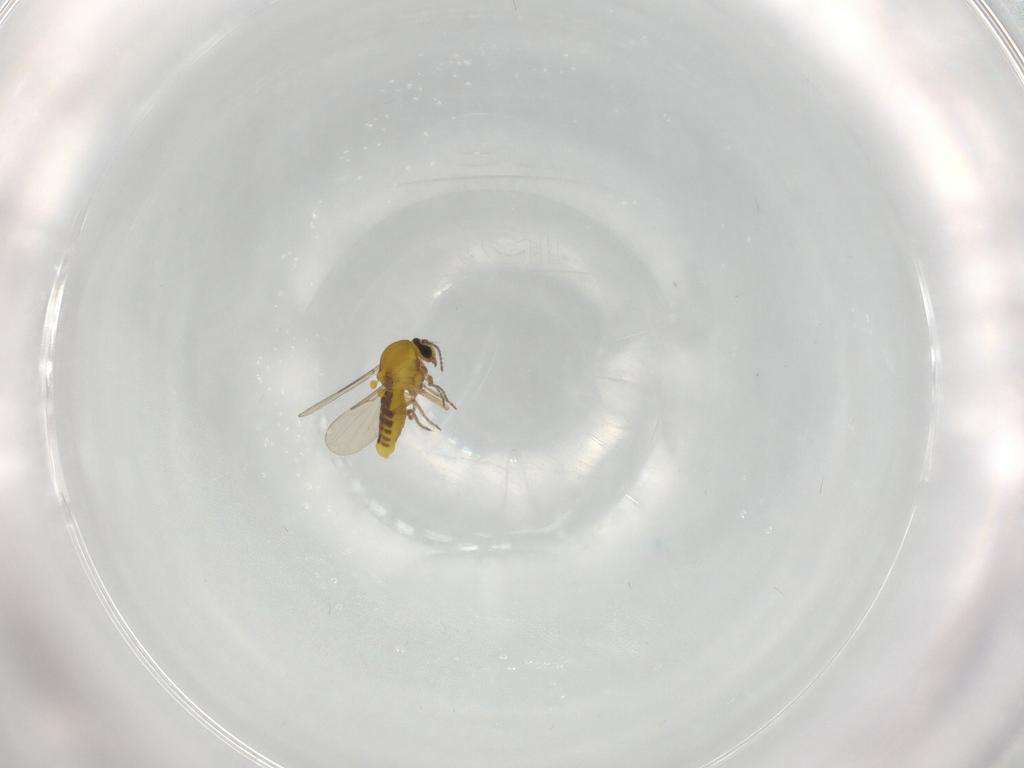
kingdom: Animalia
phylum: Arthropoda
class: Insecta
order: Diptera
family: Ceratopogonidae
